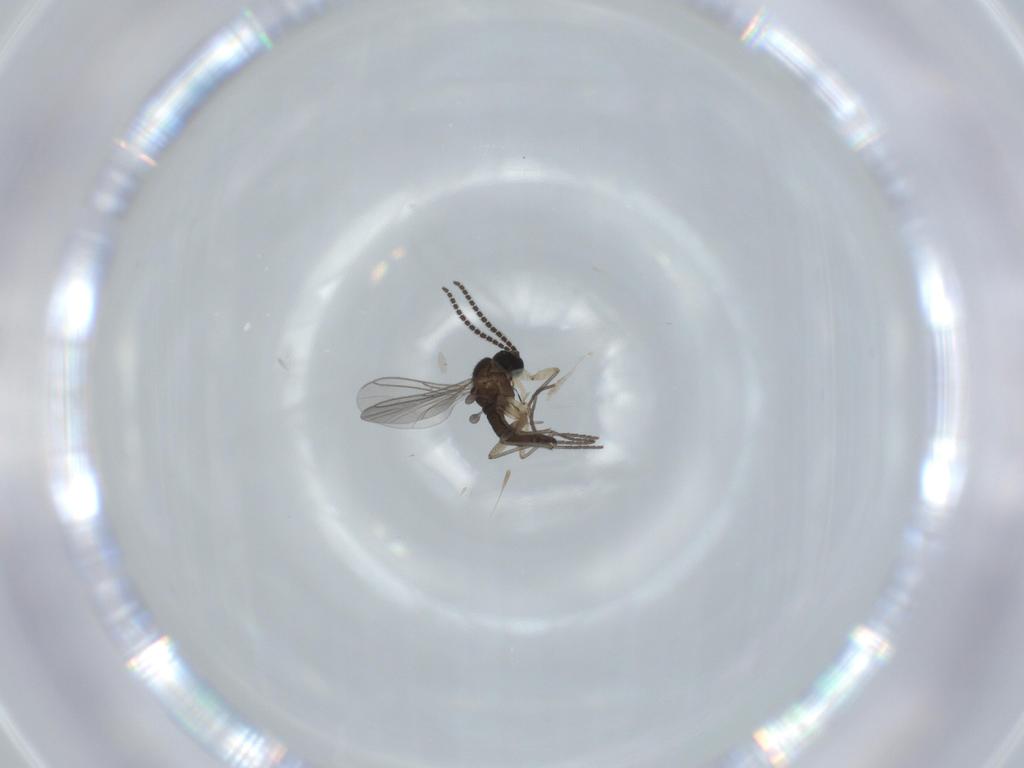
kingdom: Animalia
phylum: Arthropoda
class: Insecta
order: Diptera
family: Sciaridae
